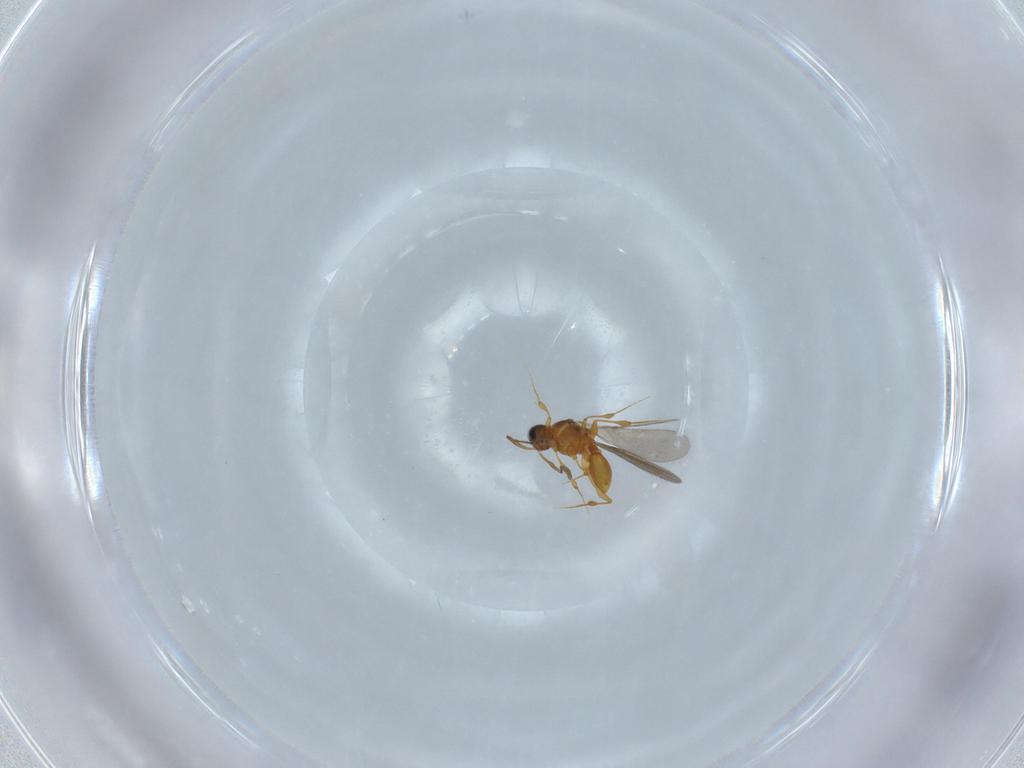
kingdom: Animalia
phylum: Arthropoda
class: Insecta
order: Hymenoptera
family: Platygastridae
